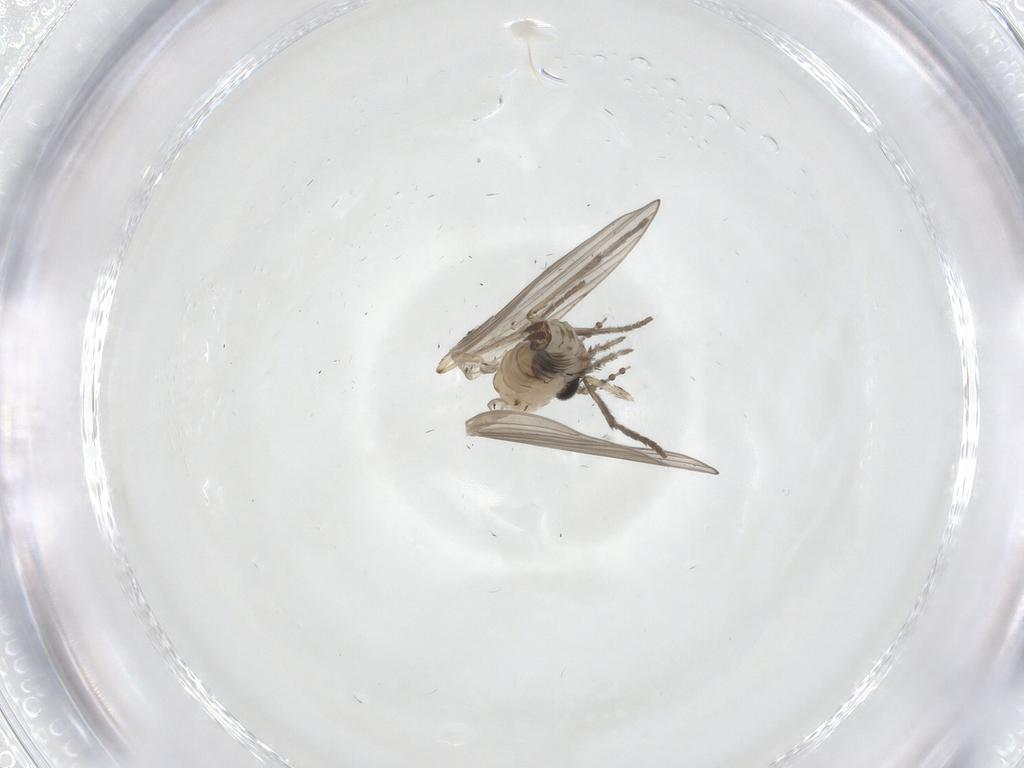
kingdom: Animalia
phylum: Arthropoda
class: Insecta
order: Diptera
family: Psychodidae
